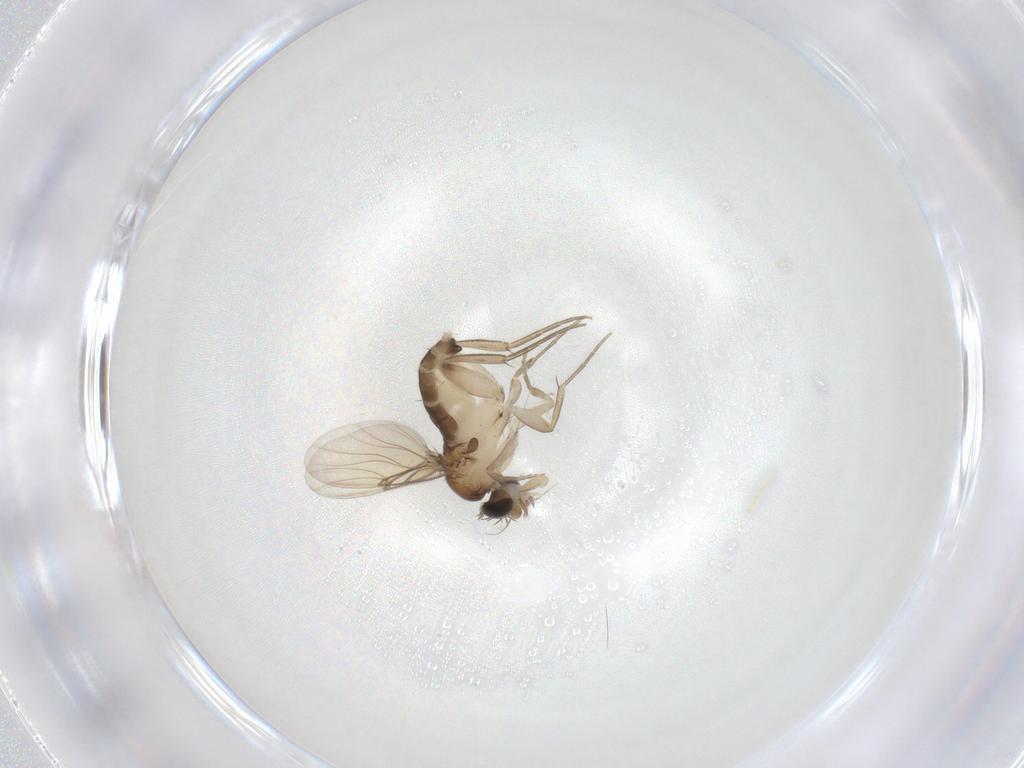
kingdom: Animalia
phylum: Arthropoda
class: Insecta
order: Diptera
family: Phoridae
